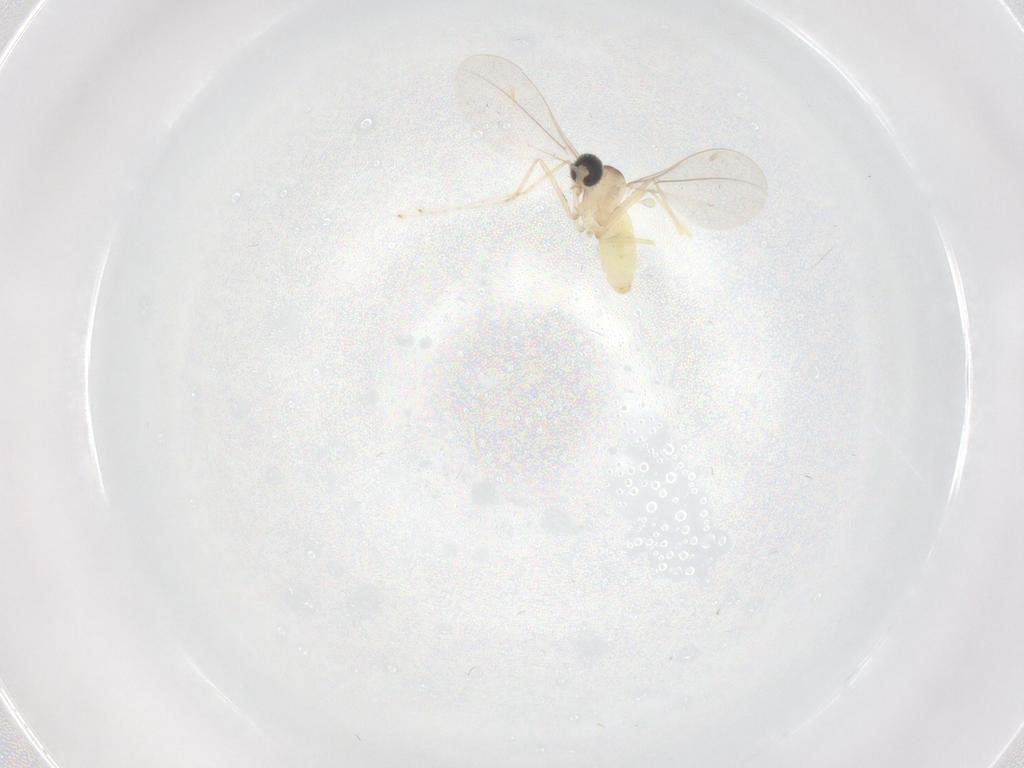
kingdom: Animalia
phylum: Arthropoda
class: Insecta
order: Diptera
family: Cecidomyiidae
